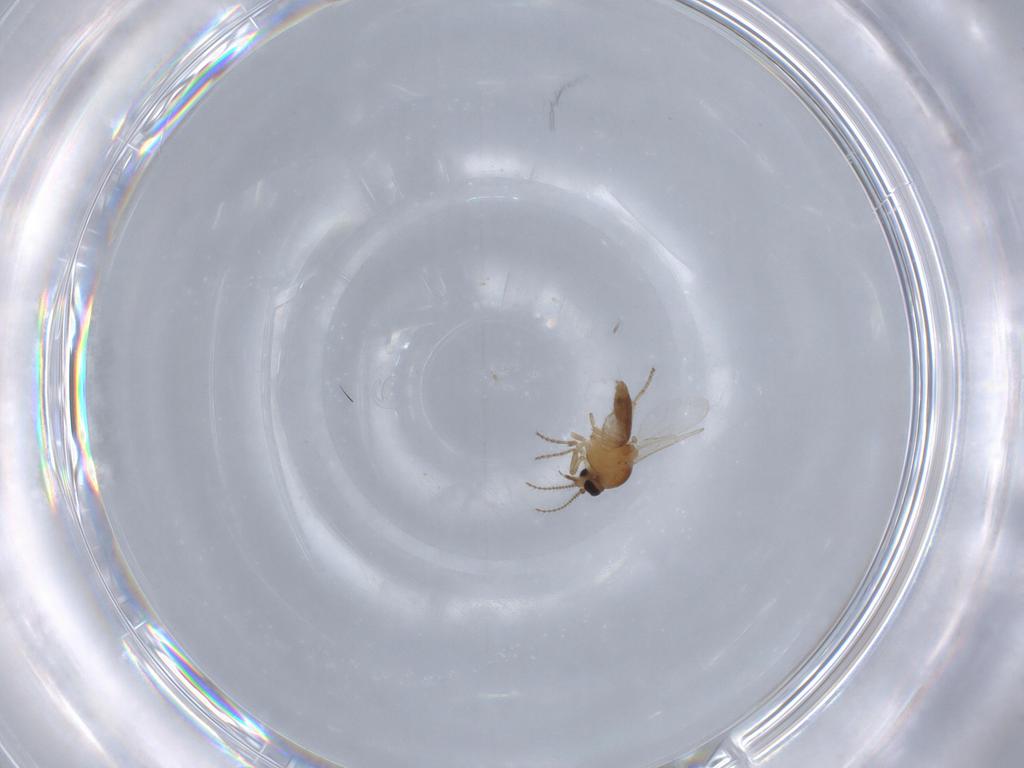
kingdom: Animalia
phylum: Arthropoda
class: Insecta
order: Diptera
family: Ceratopogonidae
